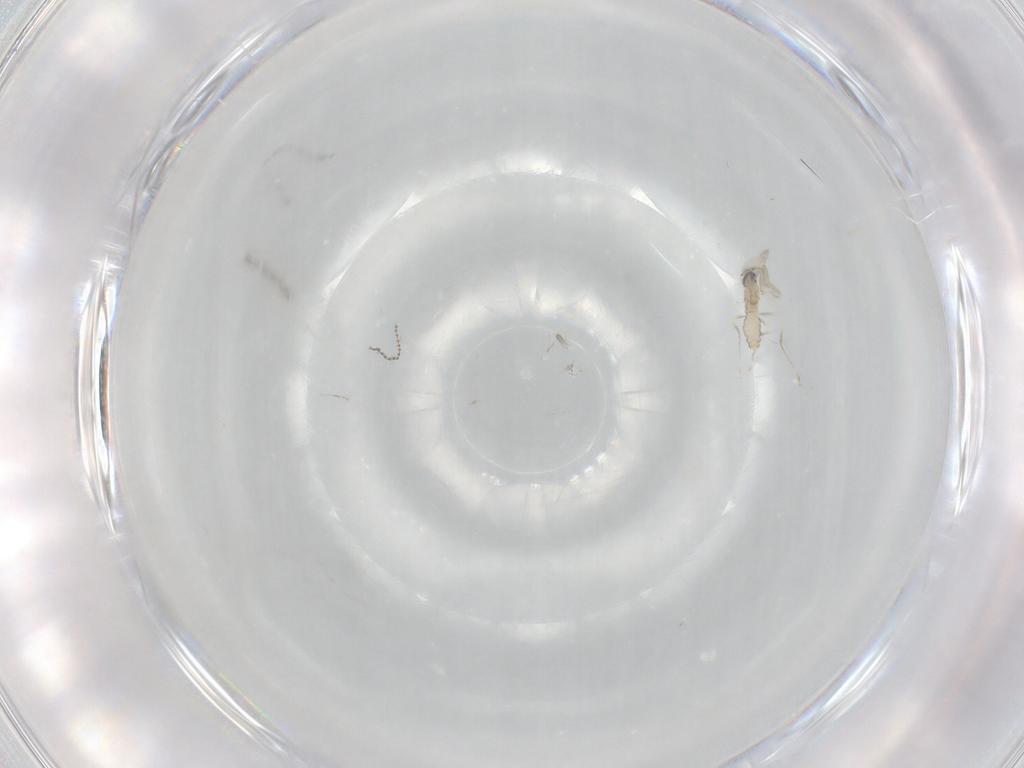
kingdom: Animalia
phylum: Arthropoda
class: Insecta
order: Diptera
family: Cecidomyiidae
